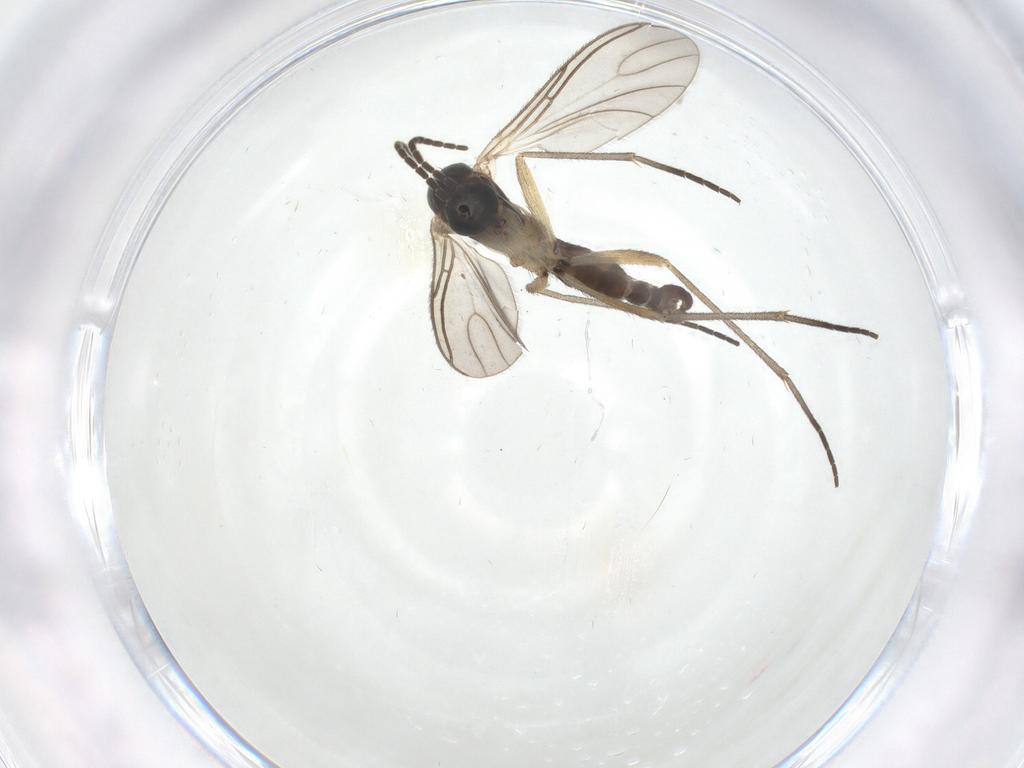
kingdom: Animalia
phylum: Arthropoda
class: Insecta
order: Diptera
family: Sciaridae
